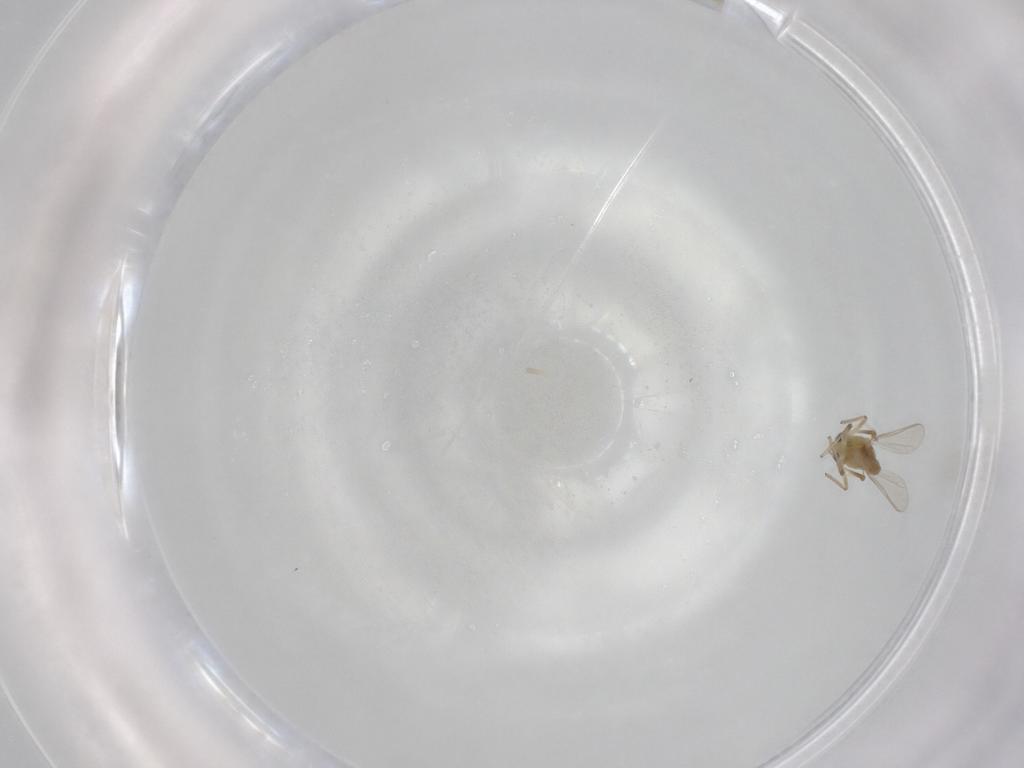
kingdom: Animalia
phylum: Arthropoda
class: Insecta
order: Diptera
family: Chironomidae
